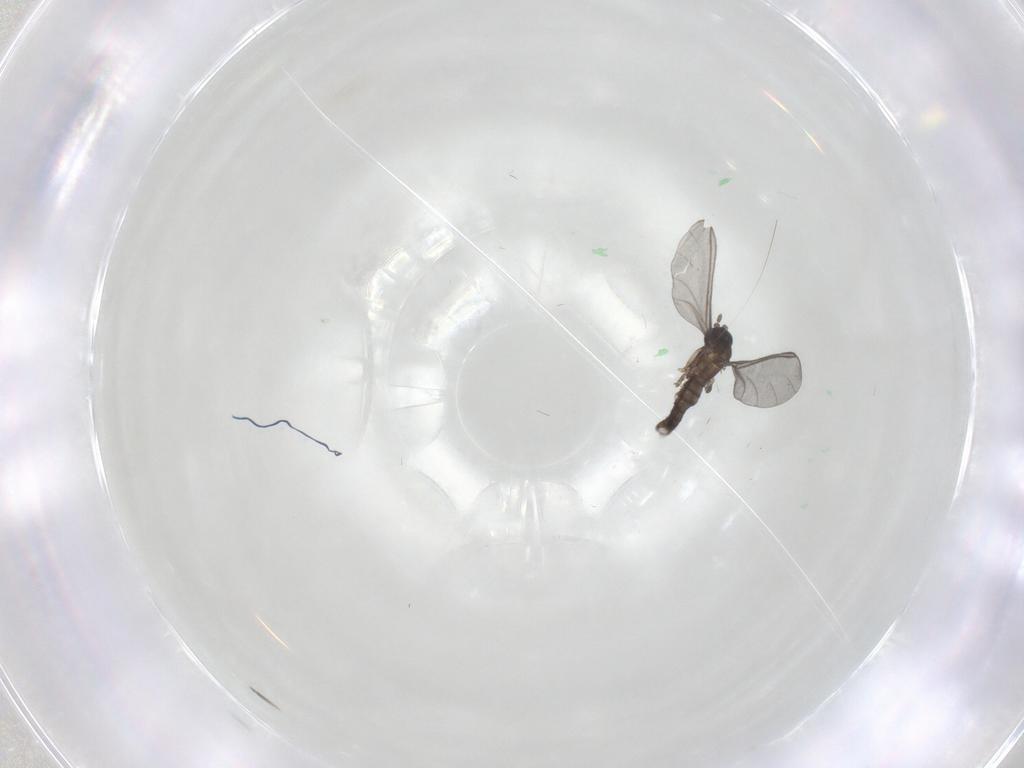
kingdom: Animalia
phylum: Arthropoda
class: Insecta
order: Diptera
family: Sciaridae
